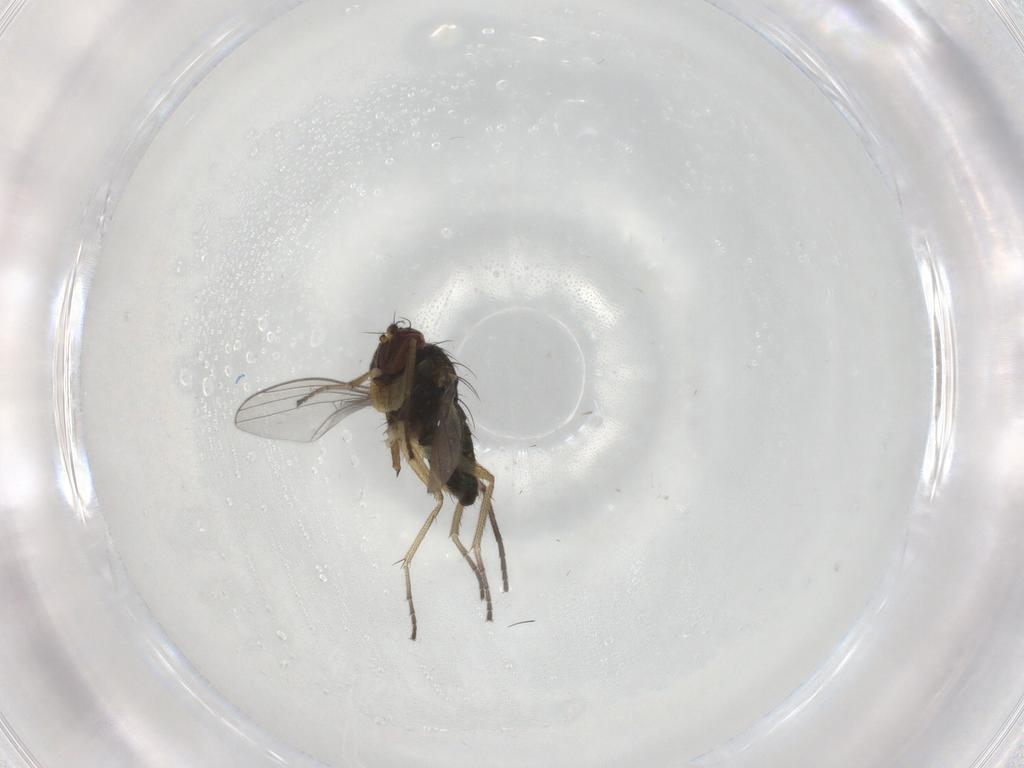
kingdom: Animalia
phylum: Arthropoda
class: Insecta
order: Diptera
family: Sciaridae
